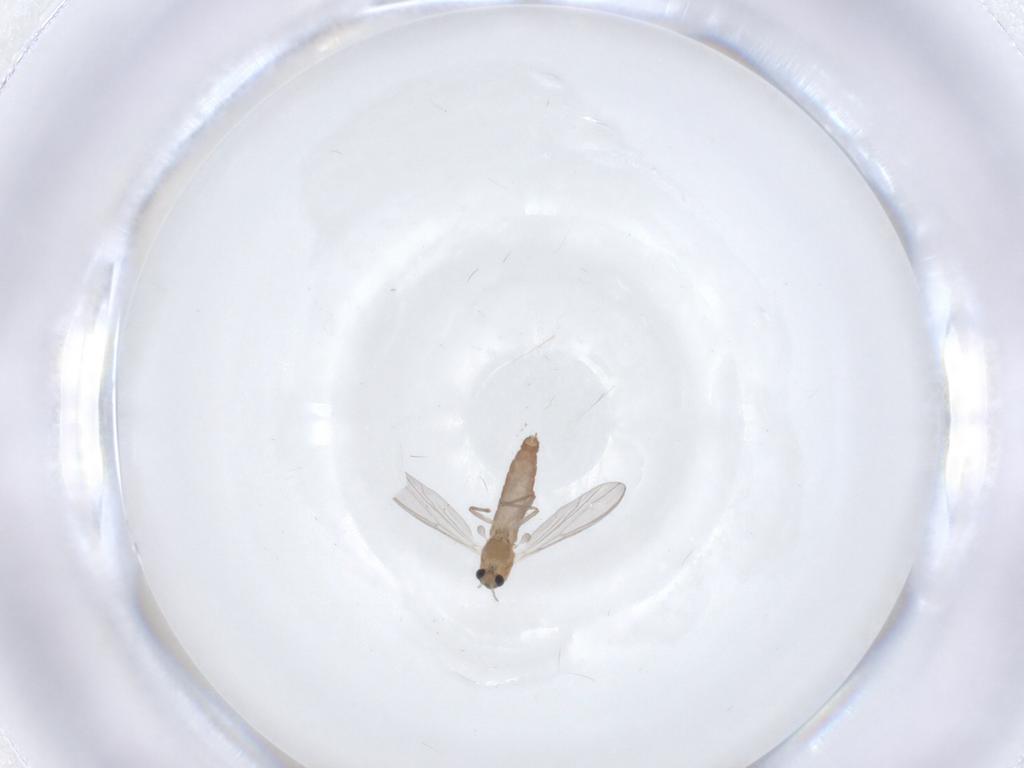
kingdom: Animalia
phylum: Arthropoda
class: Insecta
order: Diptera
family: Chironomidae
